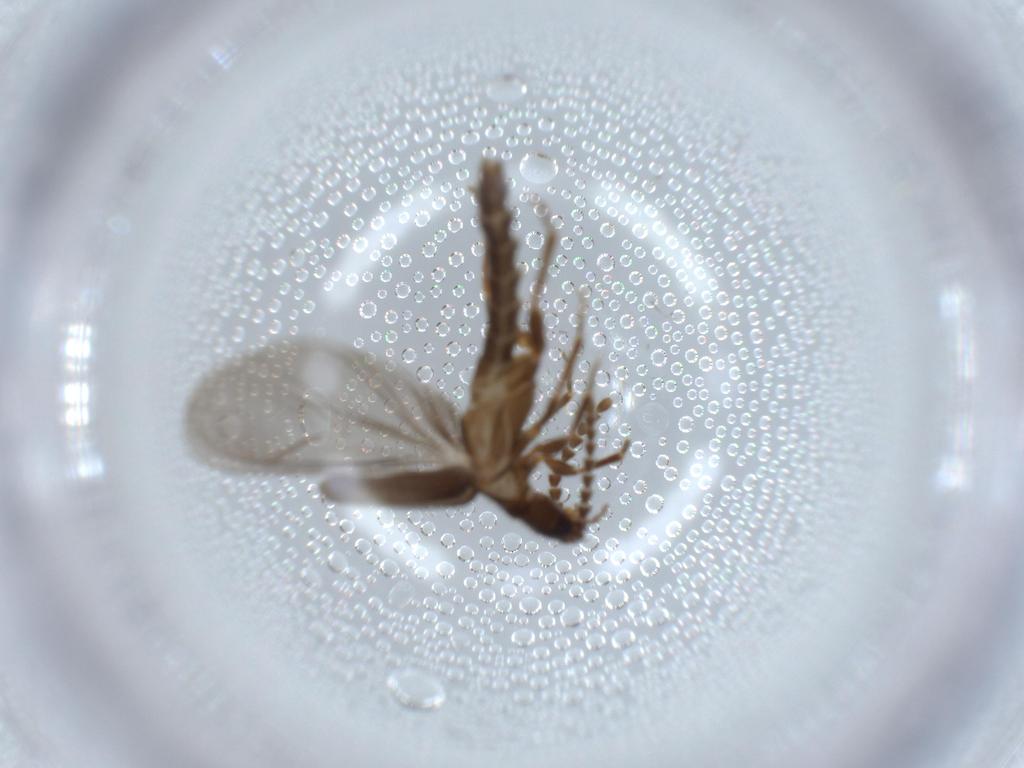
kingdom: Animalia
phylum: Arthropoda
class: Insecta
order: Coleoptera
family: Omethidae
